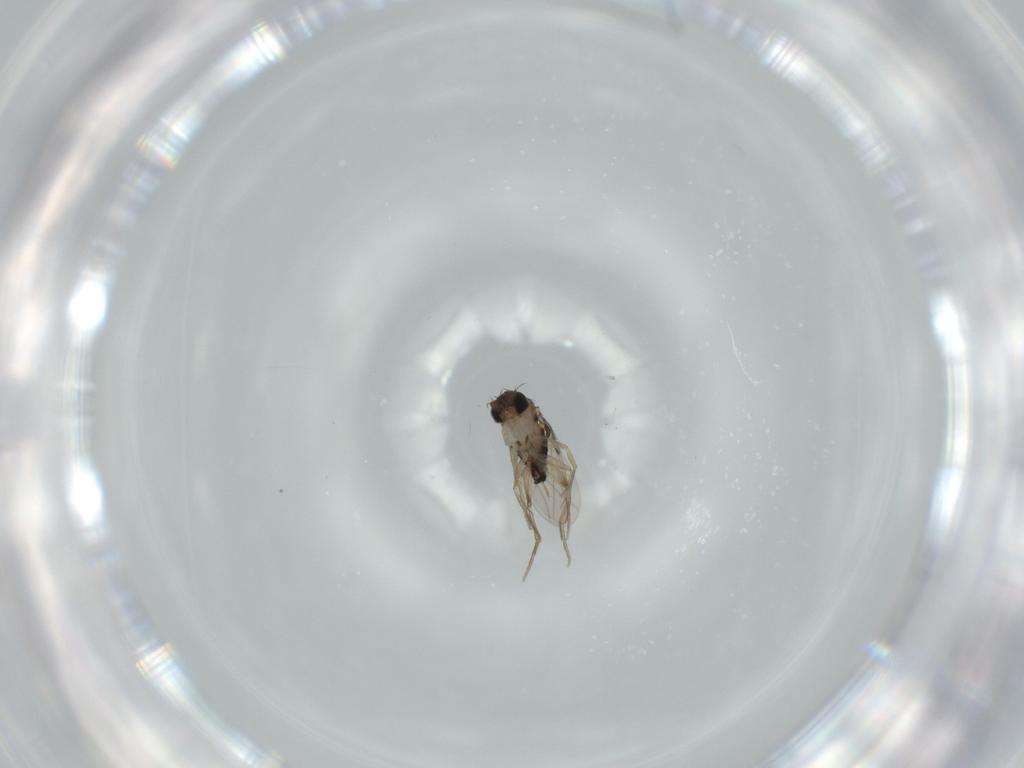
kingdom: Animalia
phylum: Arthropoda
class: Insecta
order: Diptera
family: Phoridae
